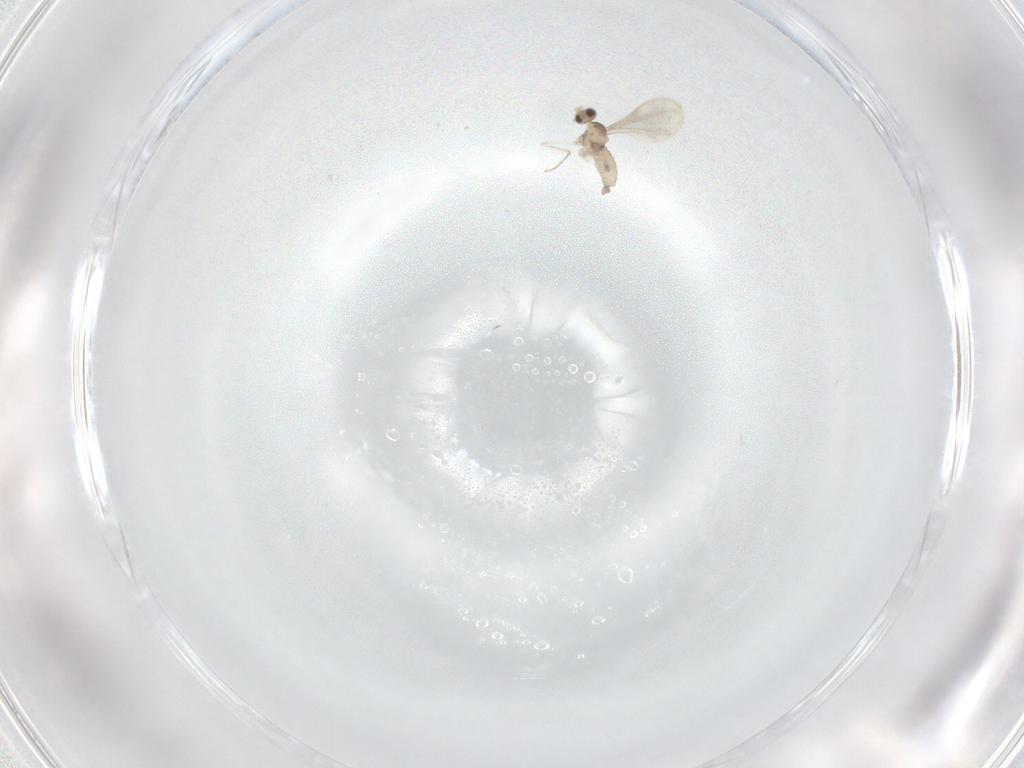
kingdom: Animalia
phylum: Arthropoda
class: Insecta
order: Diptera
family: Cecidomyiidae
